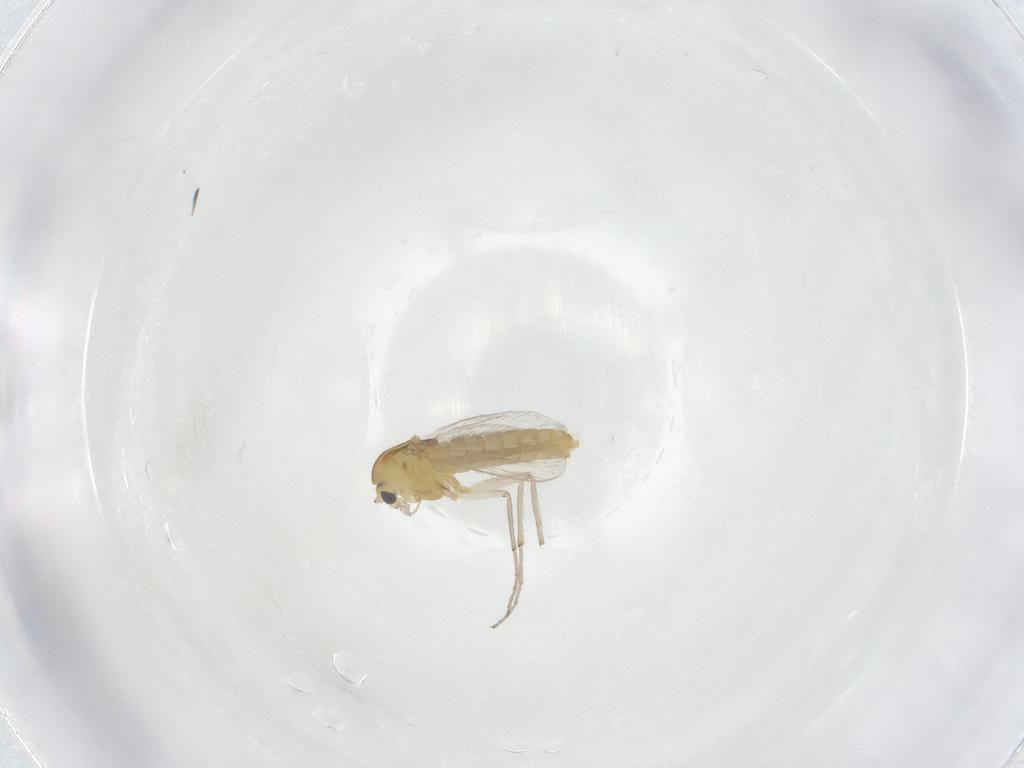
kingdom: Animalia
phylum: Arthropoda
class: Insecta
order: Diptera
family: Chironomidae
